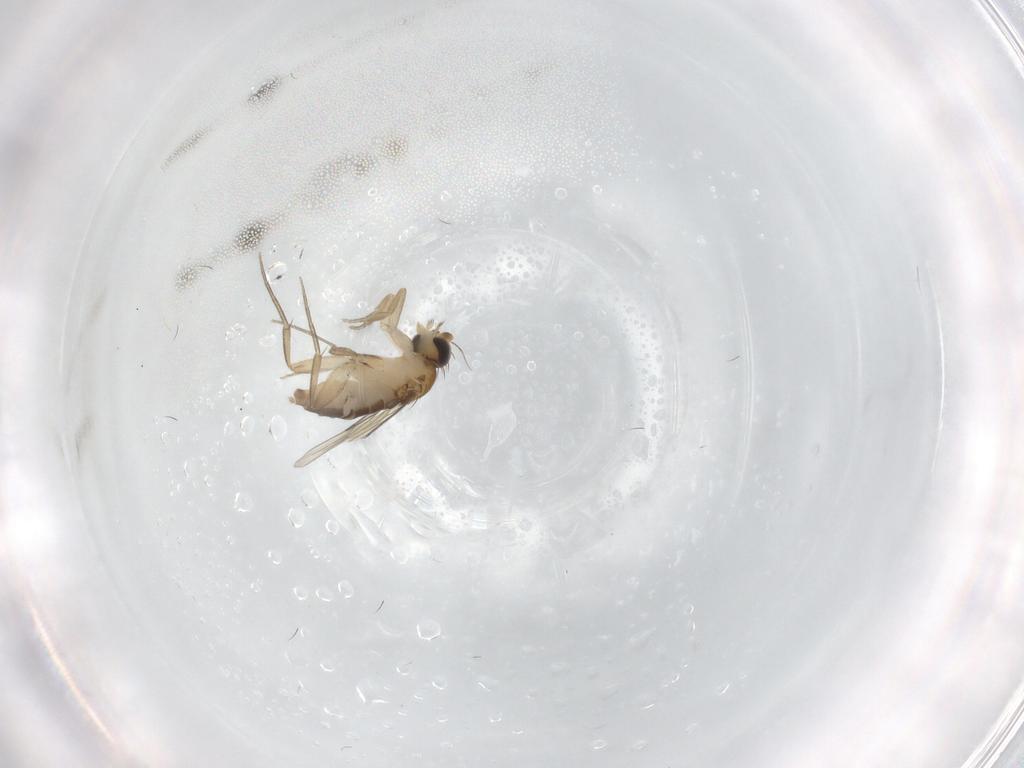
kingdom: Animalia
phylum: Arthropoda
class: Insecta
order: Diptera
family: Phoridae
